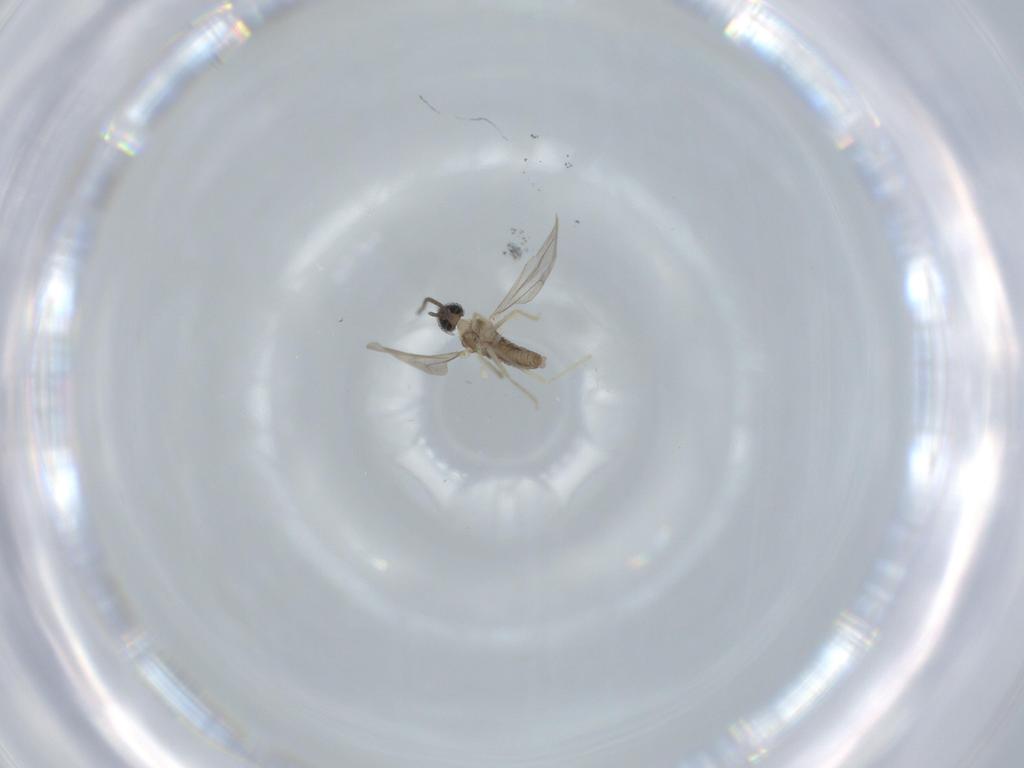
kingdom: Animalia
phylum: Arthropoda
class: Insecta
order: Diptera
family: Cecidomyiidae
